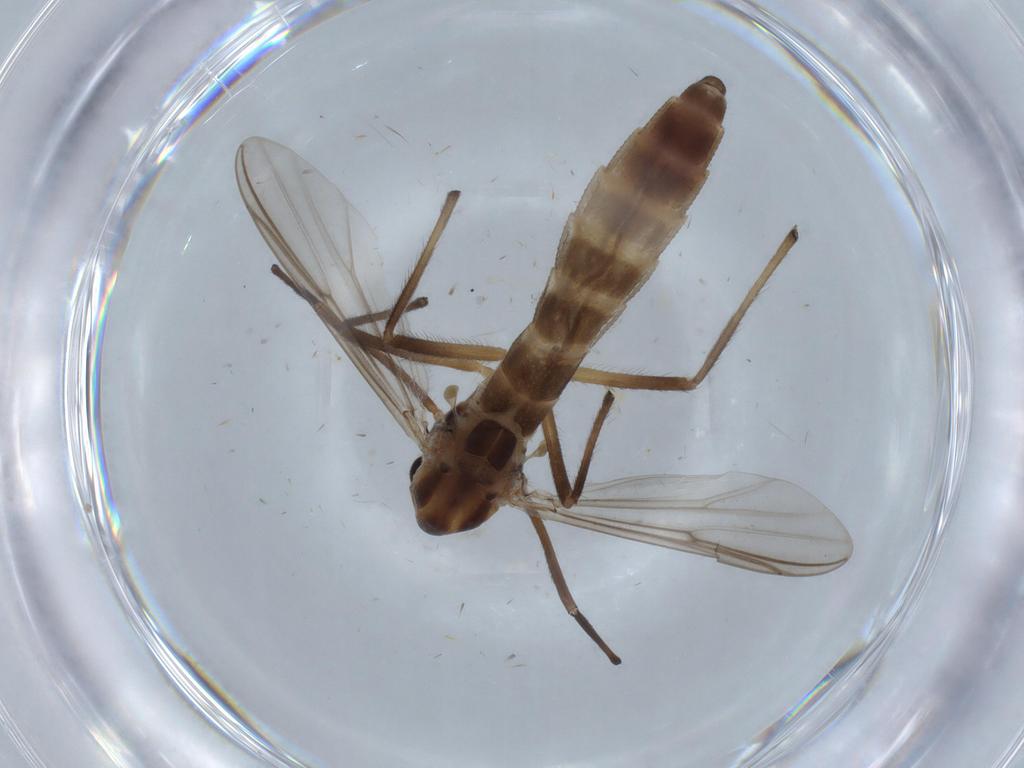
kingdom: Animalia
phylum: Arthropoda
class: Insecta
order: Diptera
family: Chironomidae
